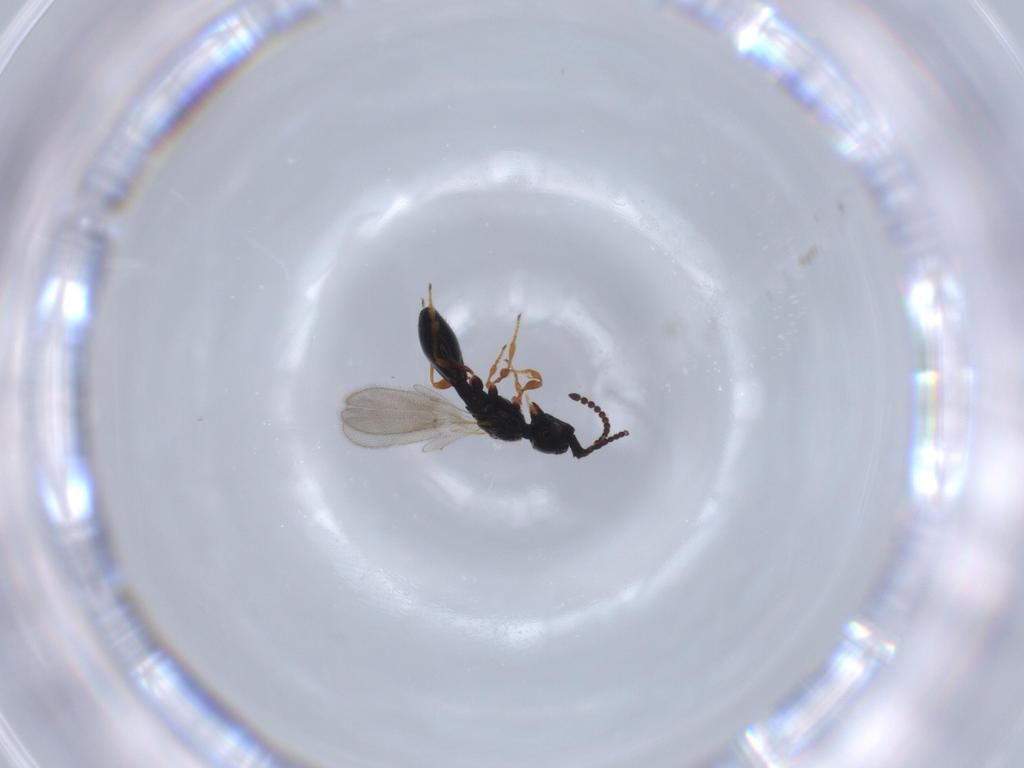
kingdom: Animalia
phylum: Arthropoda
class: Insecta
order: Hymenoptera
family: Diapriidae
